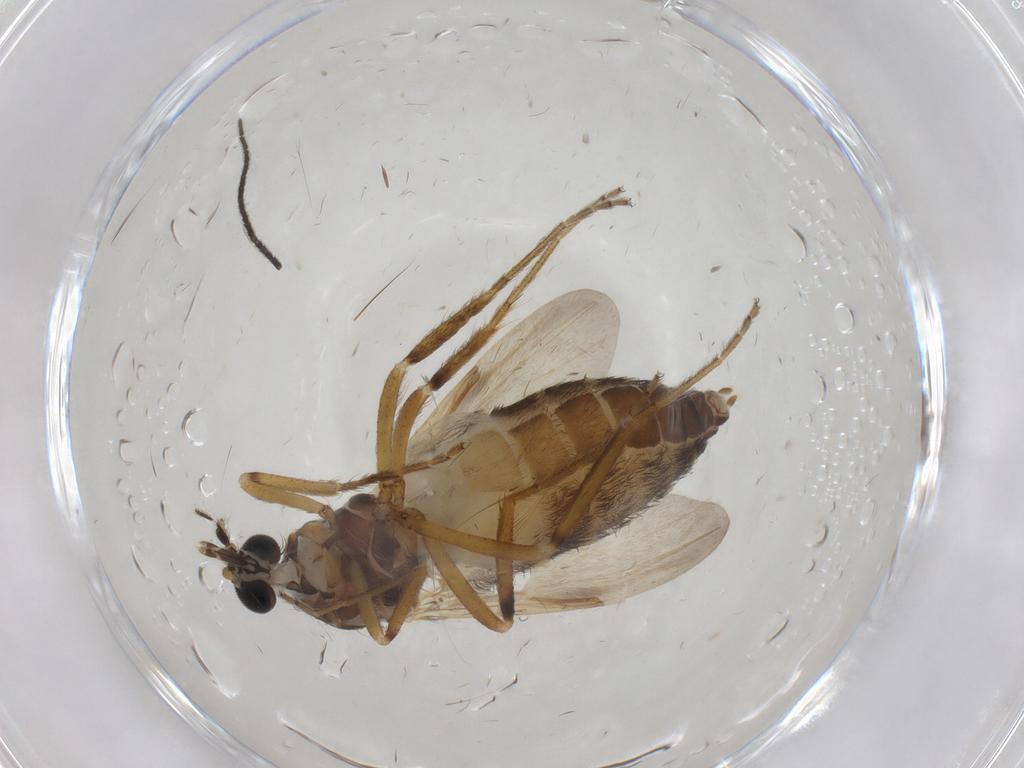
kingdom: Animalia
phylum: Arthropoda
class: Insecta
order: Diptera
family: Ceratopogonidae
